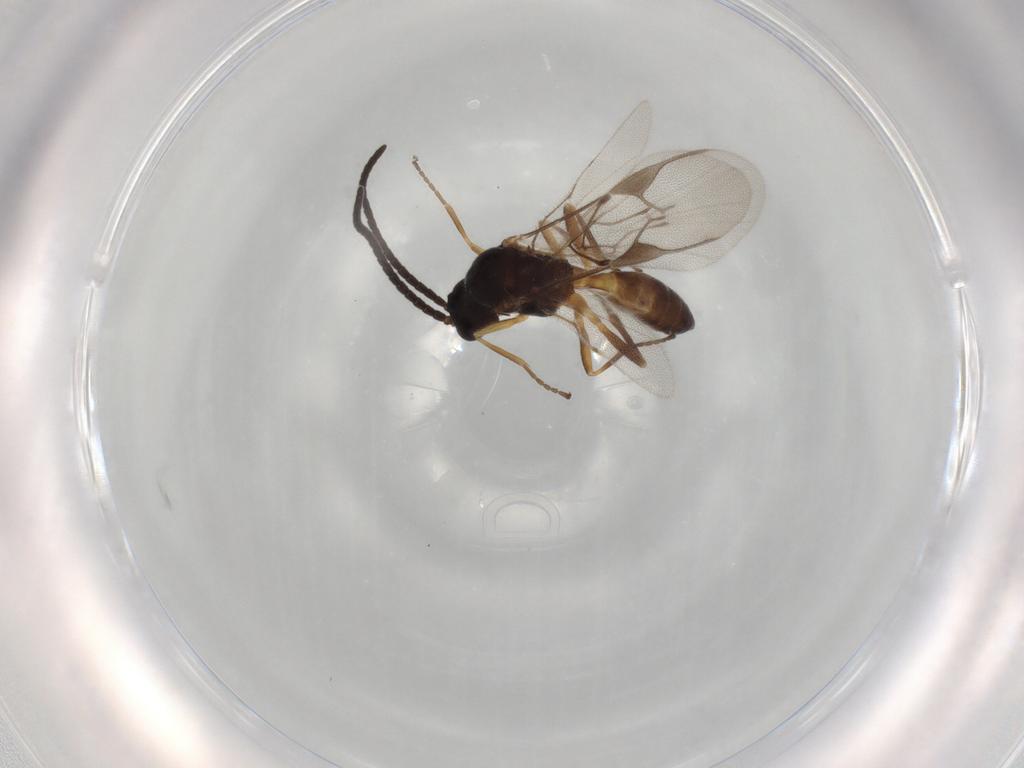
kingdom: Animalia
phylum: Arthropoda
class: Insecta
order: Hymenoptera
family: Braconidae
